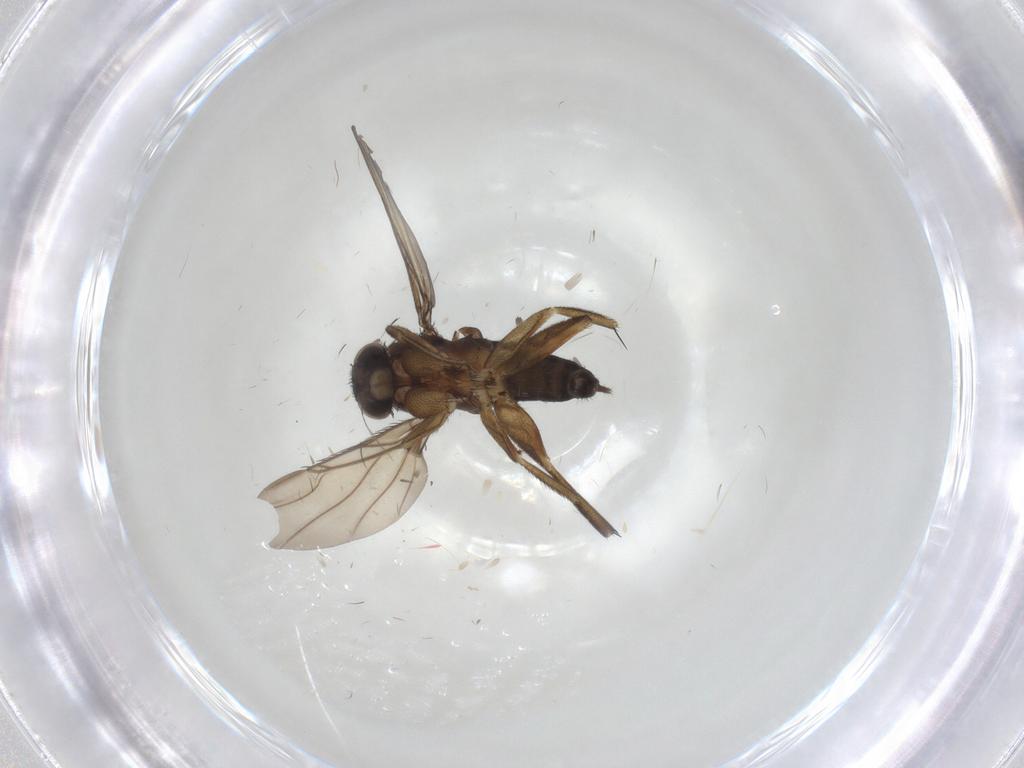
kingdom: Animalia
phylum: Arthropoda
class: Insecta
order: Diptera
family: Phoridae
